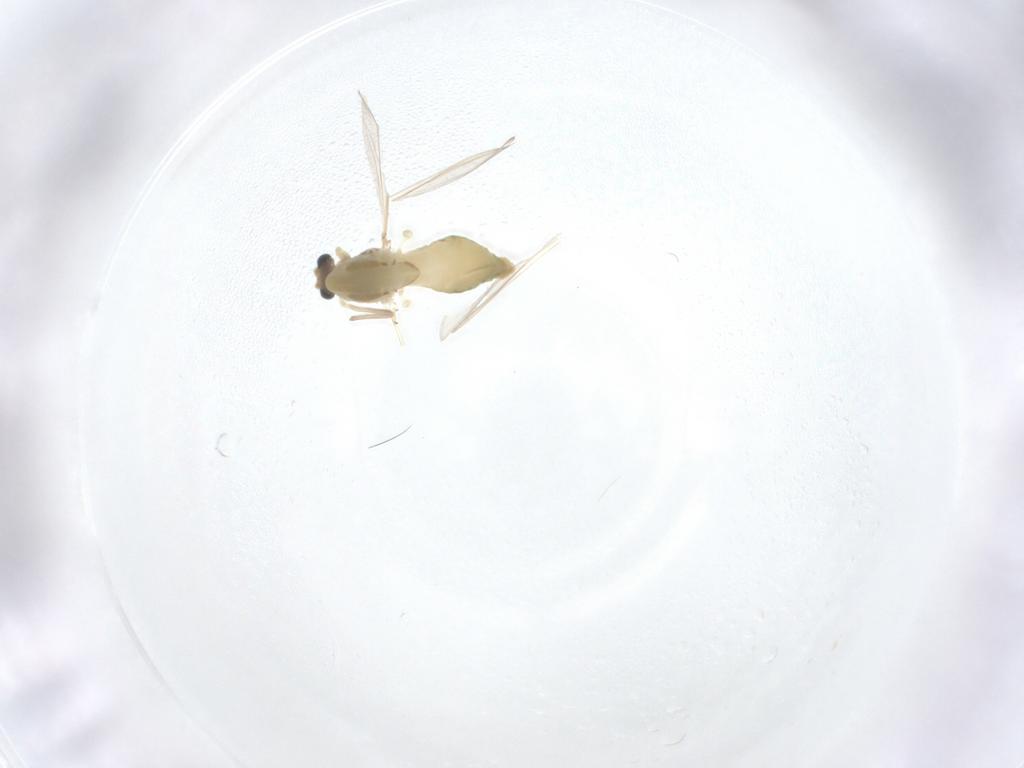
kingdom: Animalia
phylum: Arthropoda
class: Insecta
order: Diptera
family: Chironomidae
